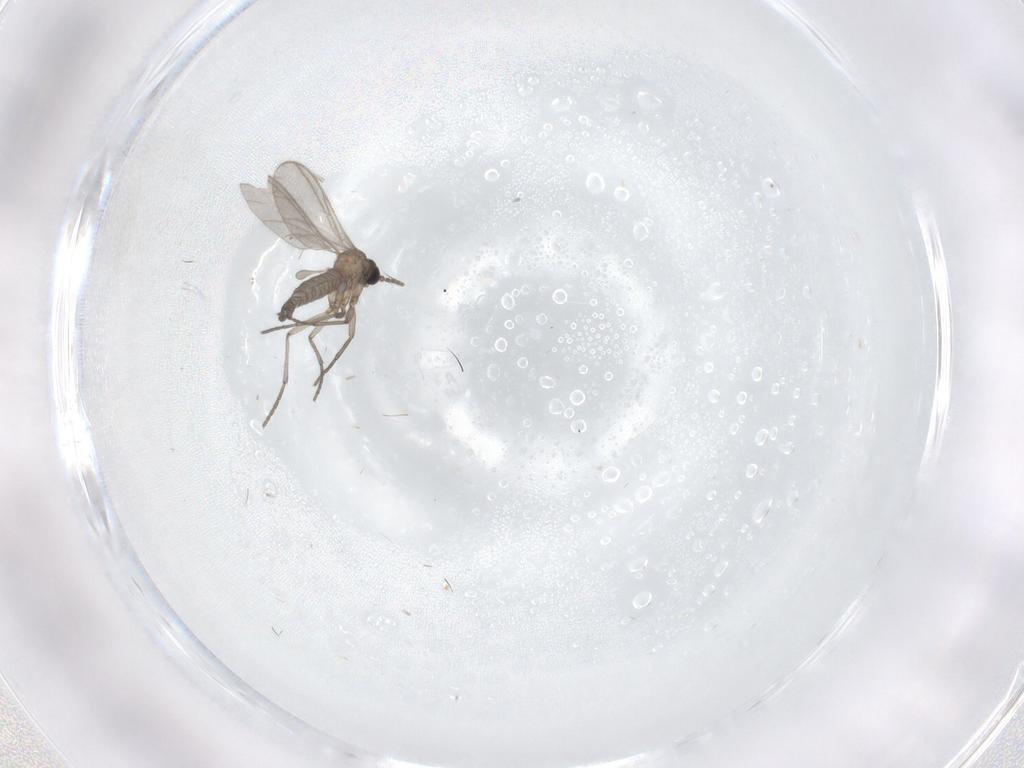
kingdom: Animalia
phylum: Arthropoda
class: Insecta
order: Diptera
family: Sciaridae
